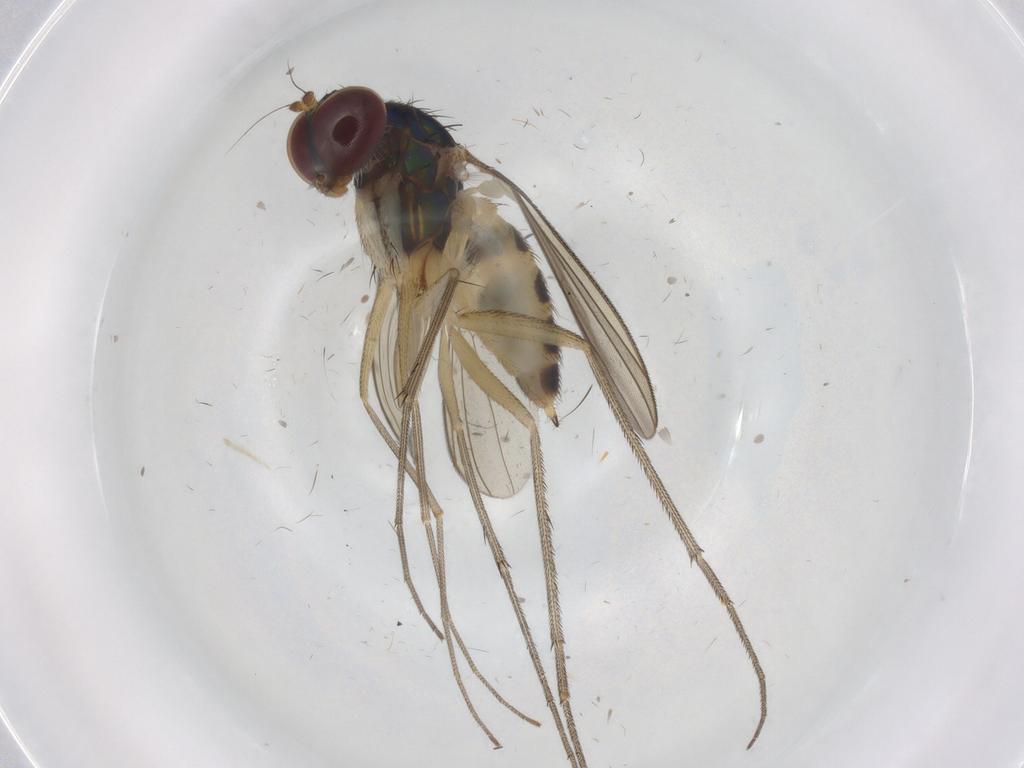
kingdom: Animalia
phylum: Arthropoda
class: Insecta
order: Diptera
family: Dolichopodidae
